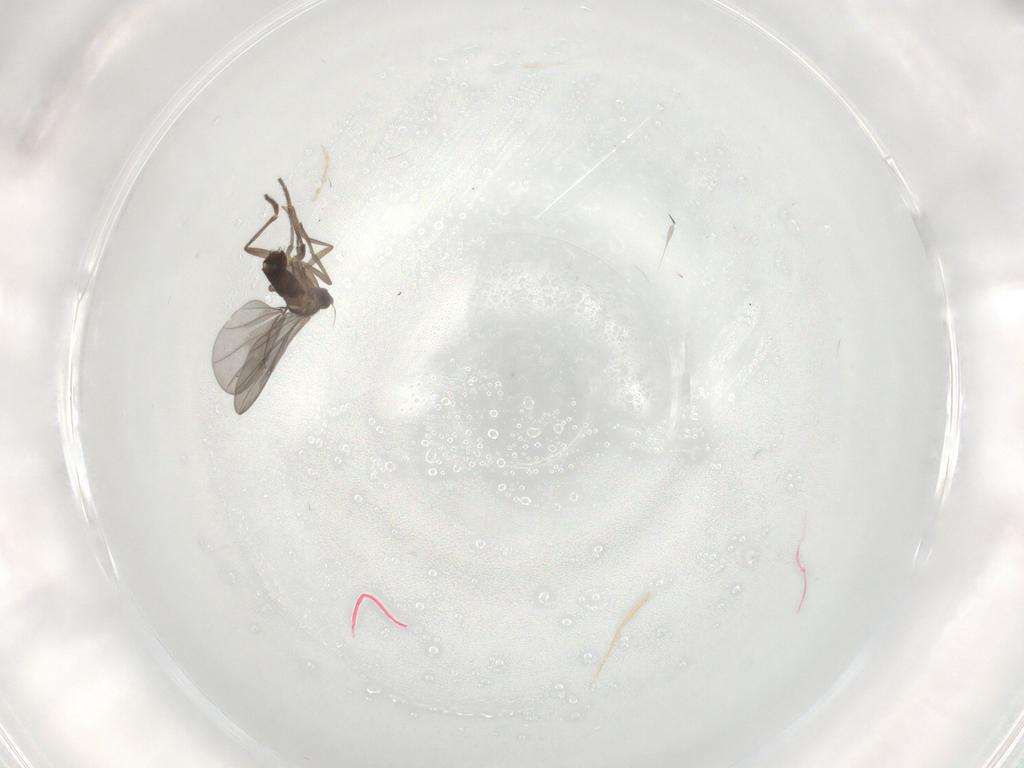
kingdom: Animalia
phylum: Arthropoda
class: Insecta
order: Diptera
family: Phoridae
